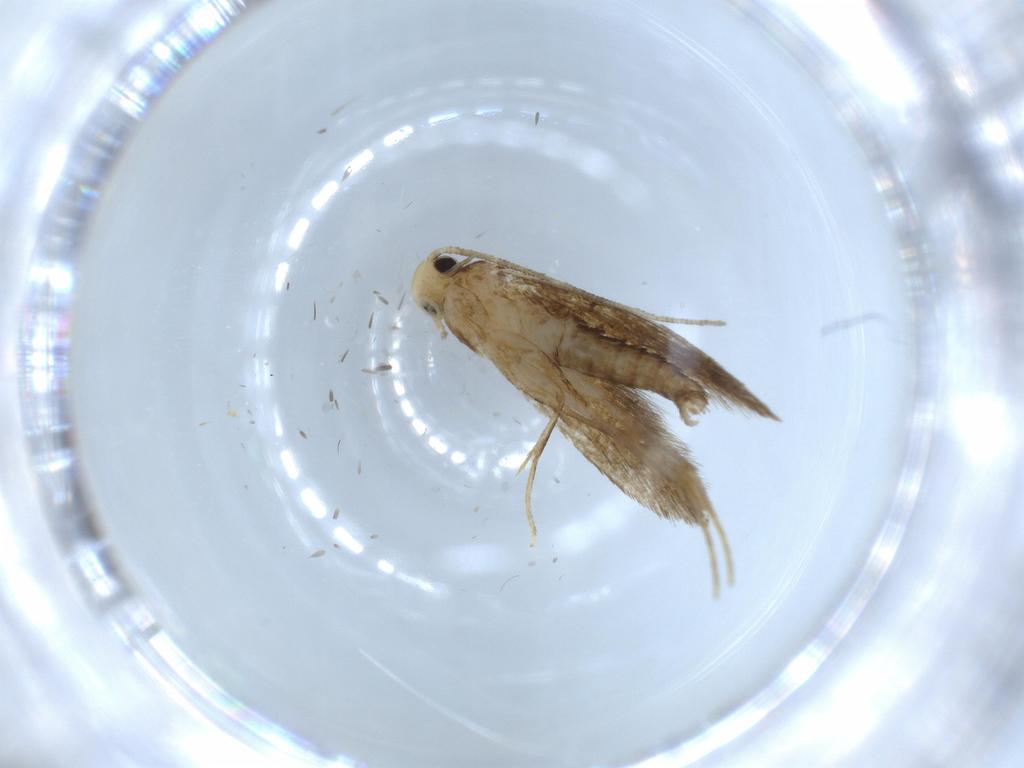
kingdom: Animalia
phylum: Arthropoda
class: Insecta
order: Lepidoptera
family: Tineidae
